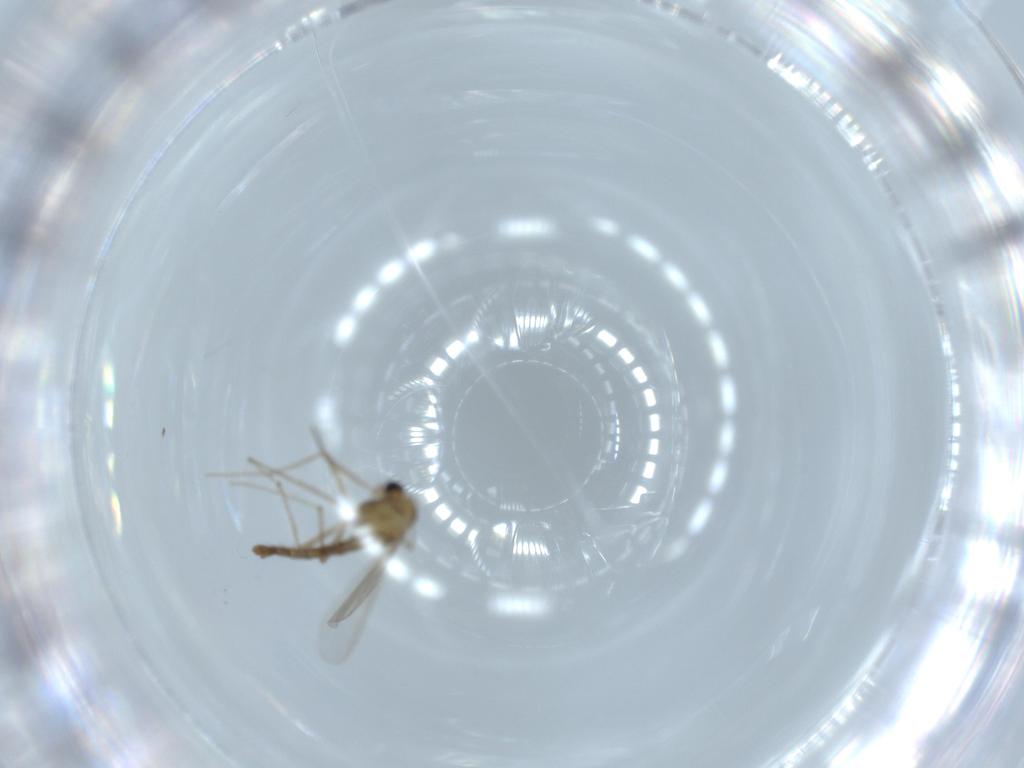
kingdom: Animalia
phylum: Arthropoda
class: Insecta
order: Diptera
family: Chironomidae
